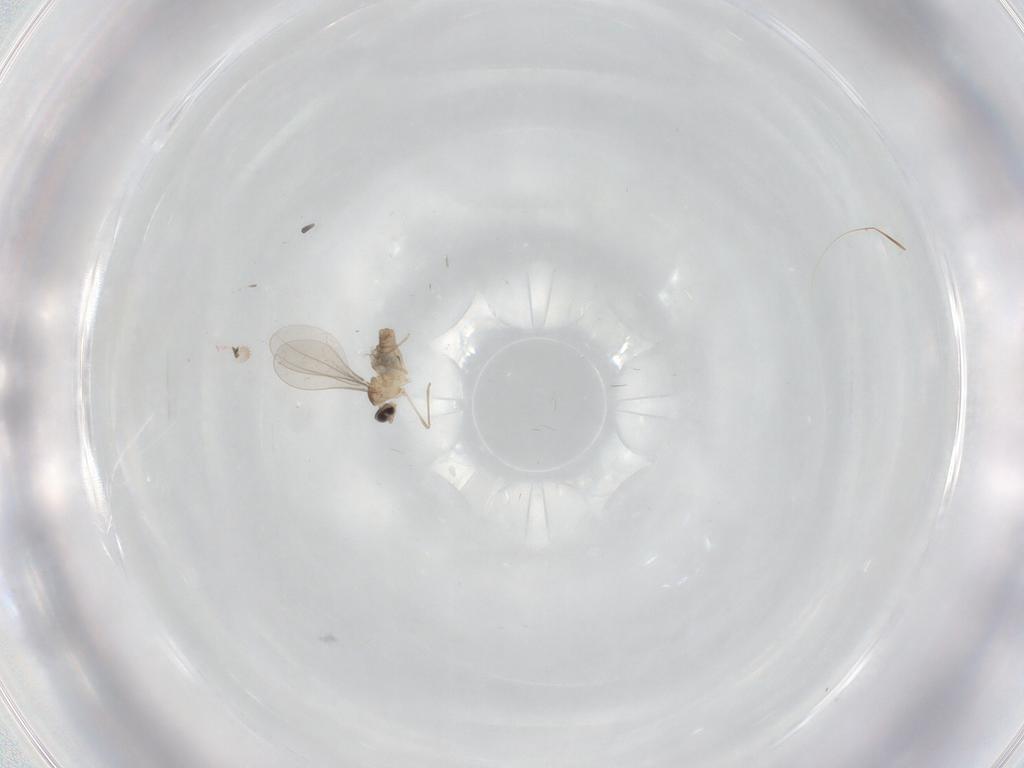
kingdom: Animalia
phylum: Arthropoda
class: Insecta
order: Diptera
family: Cecidomyiidae
